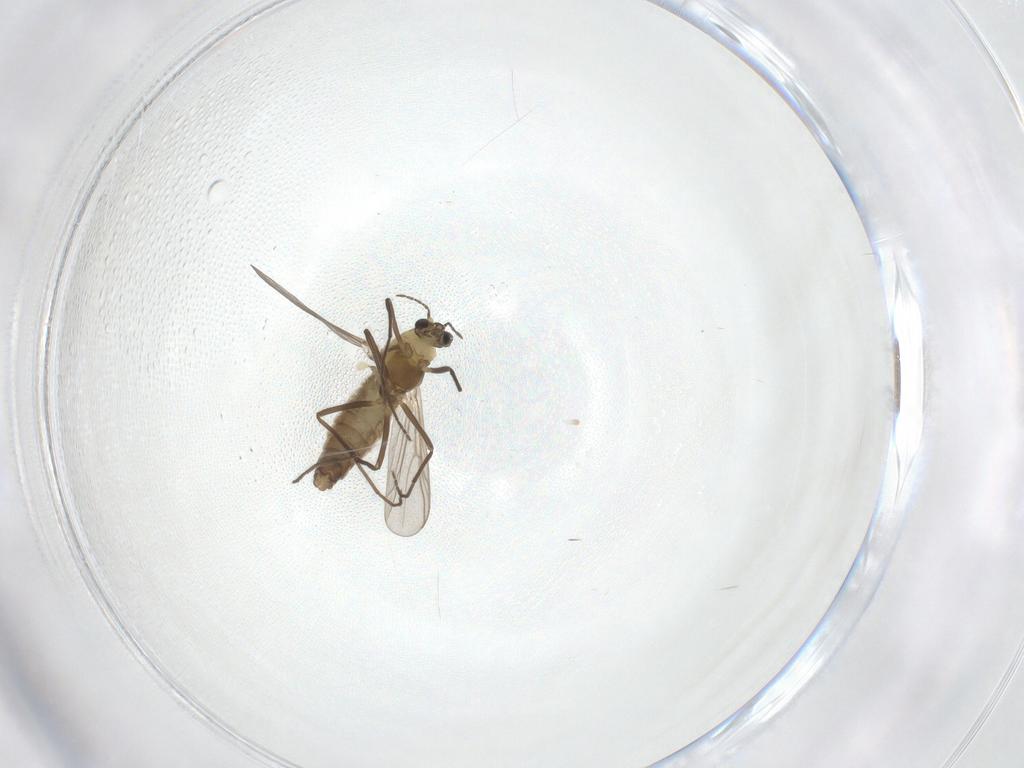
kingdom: Animalia
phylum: Arthropoda
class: Insecta
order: Diptera
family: Chironomidae
